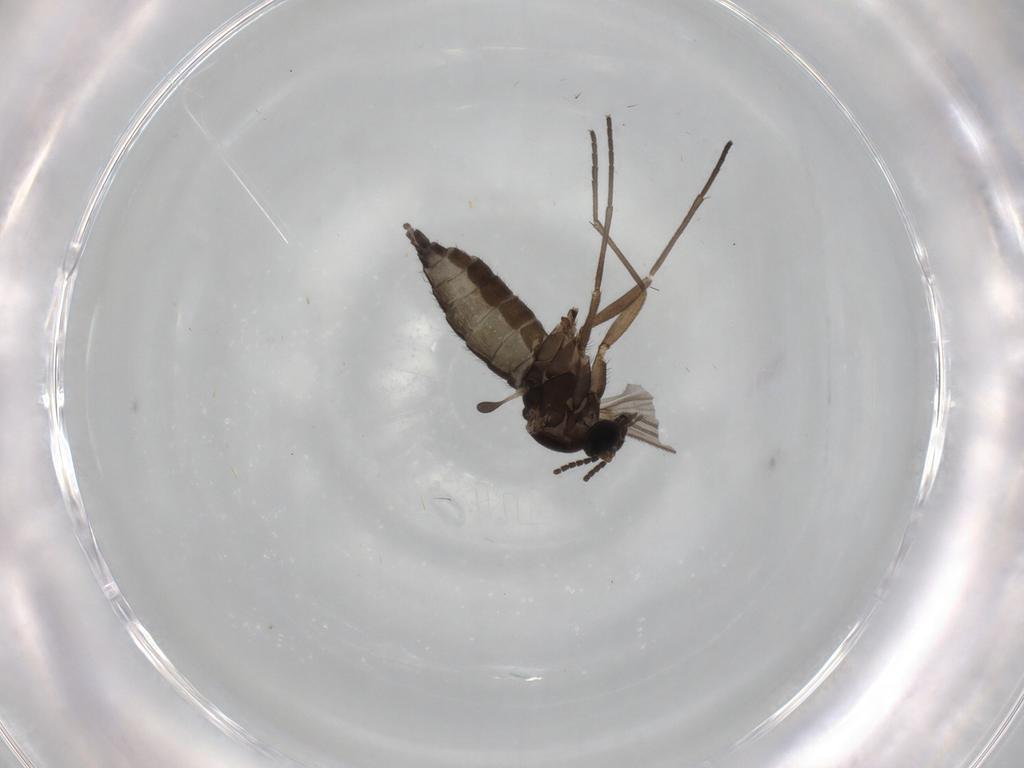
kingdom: Animalia
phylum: Arthropoda
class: Insecta
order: Diptera
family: Sciaridae
